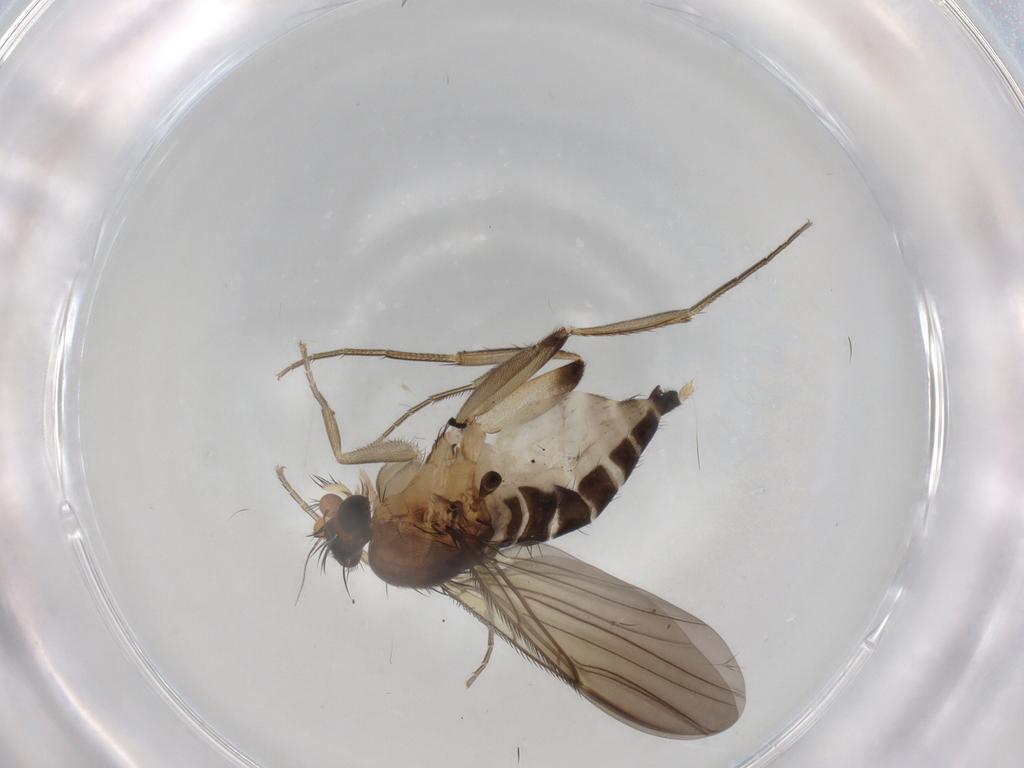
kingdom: Animalia
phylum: Arthropoda
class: Insecta
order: Diptera
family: Phoridae
